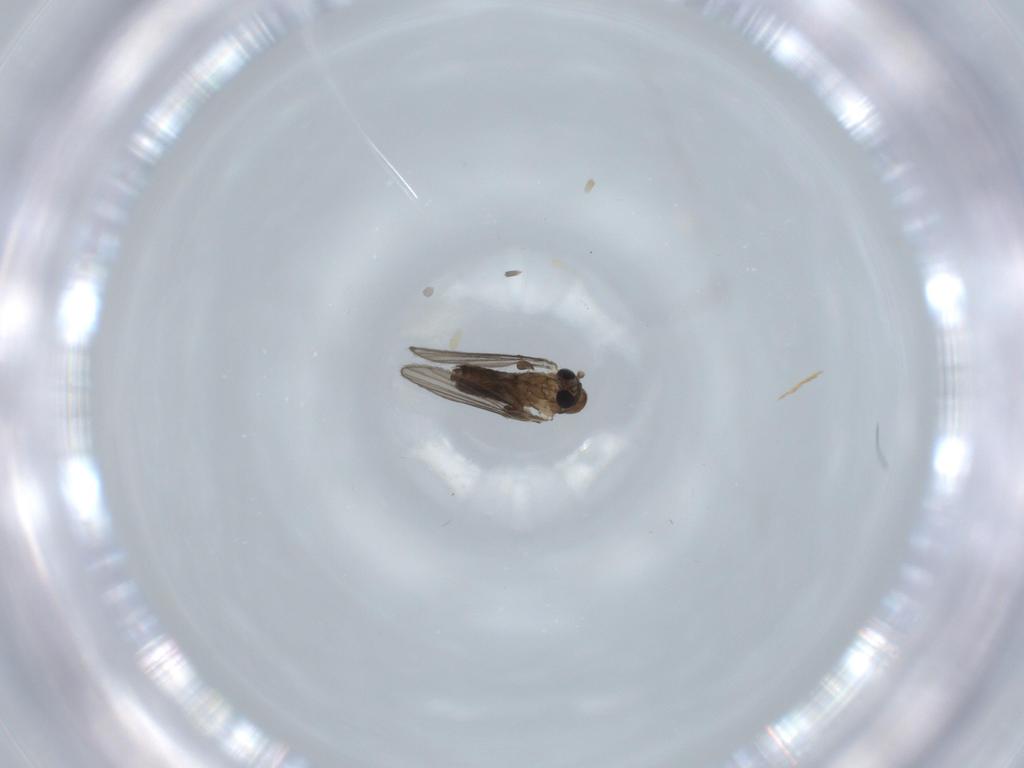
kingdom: Animalia
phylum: Arthropoda
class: Insecta
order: Diptera
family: Psychodidae
